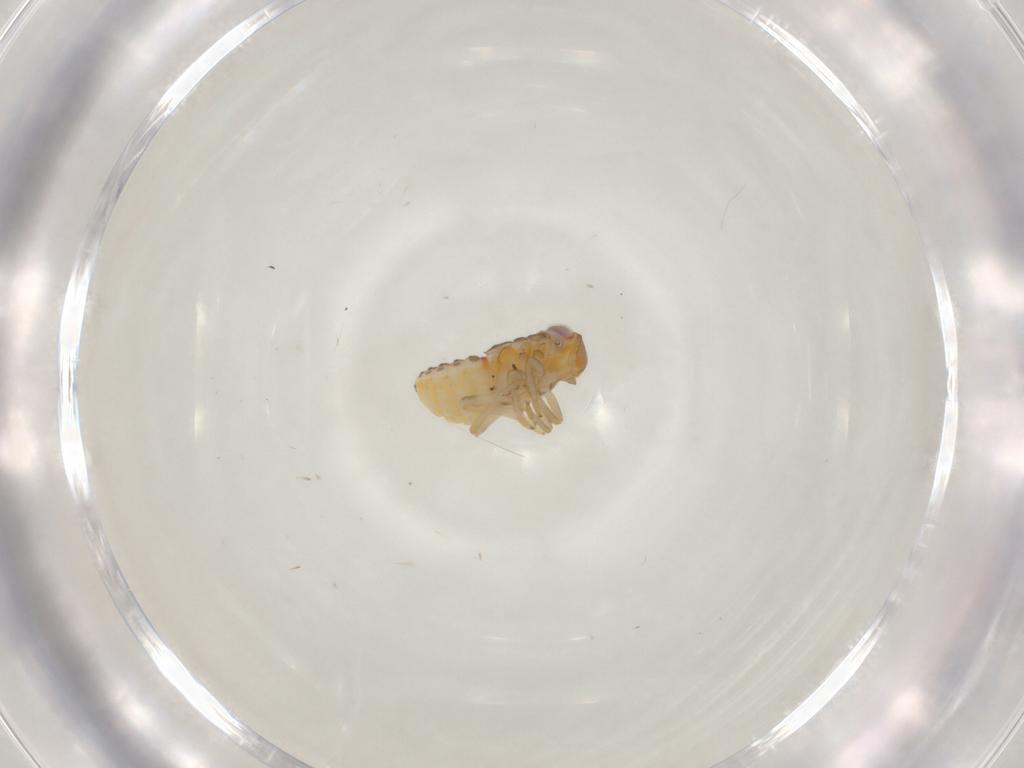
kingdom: Animalia
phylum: Arthropoda
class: Insecta
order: Hemiptera
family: Issidae
